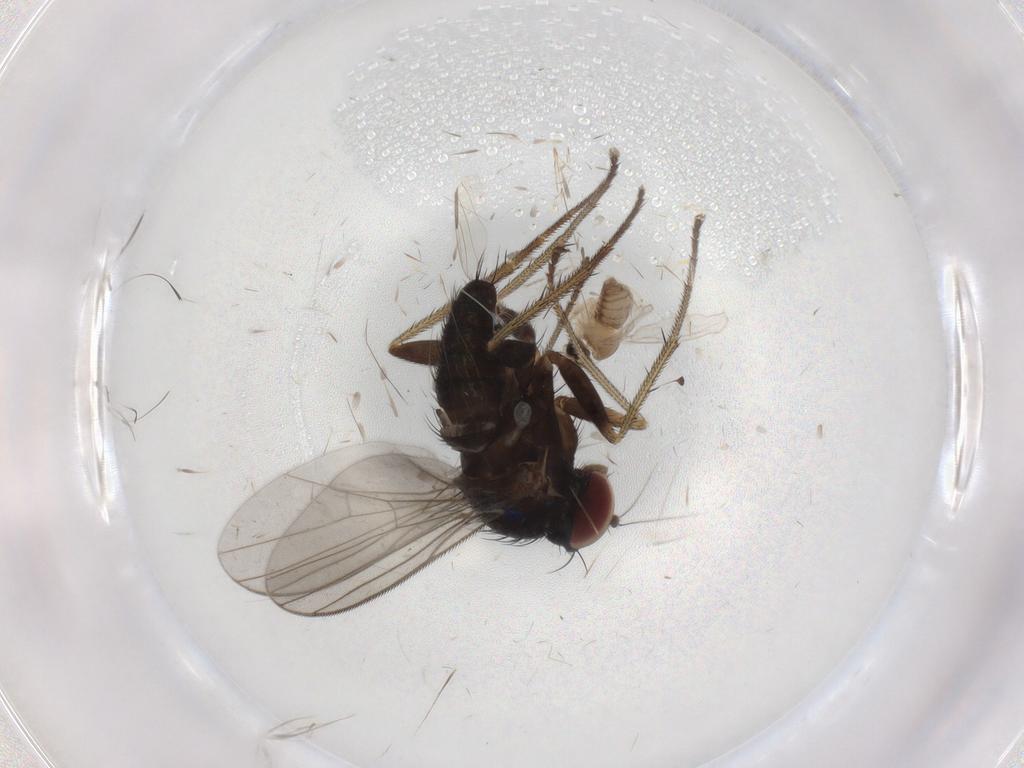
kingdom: Animalia
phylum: Arthropoda
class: Insecta
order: Diptera
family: Dolichopodidae
